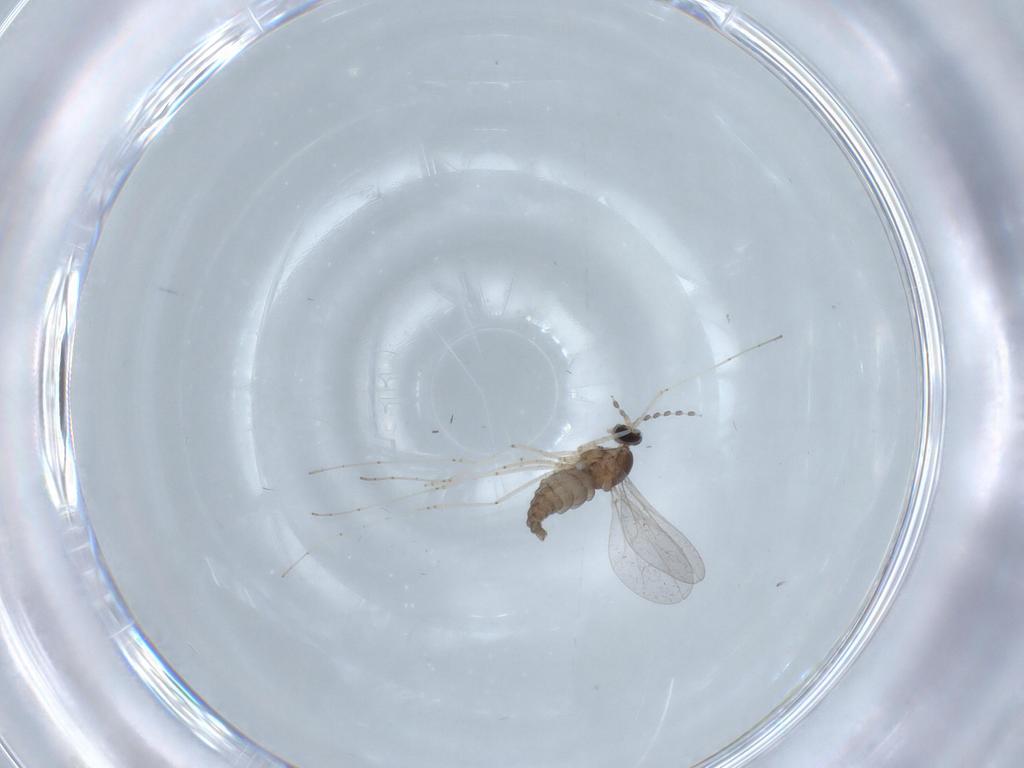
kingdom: Animalia
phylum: Arthropoda
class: Insecta
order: Diptera
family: Cecidomyiidae
